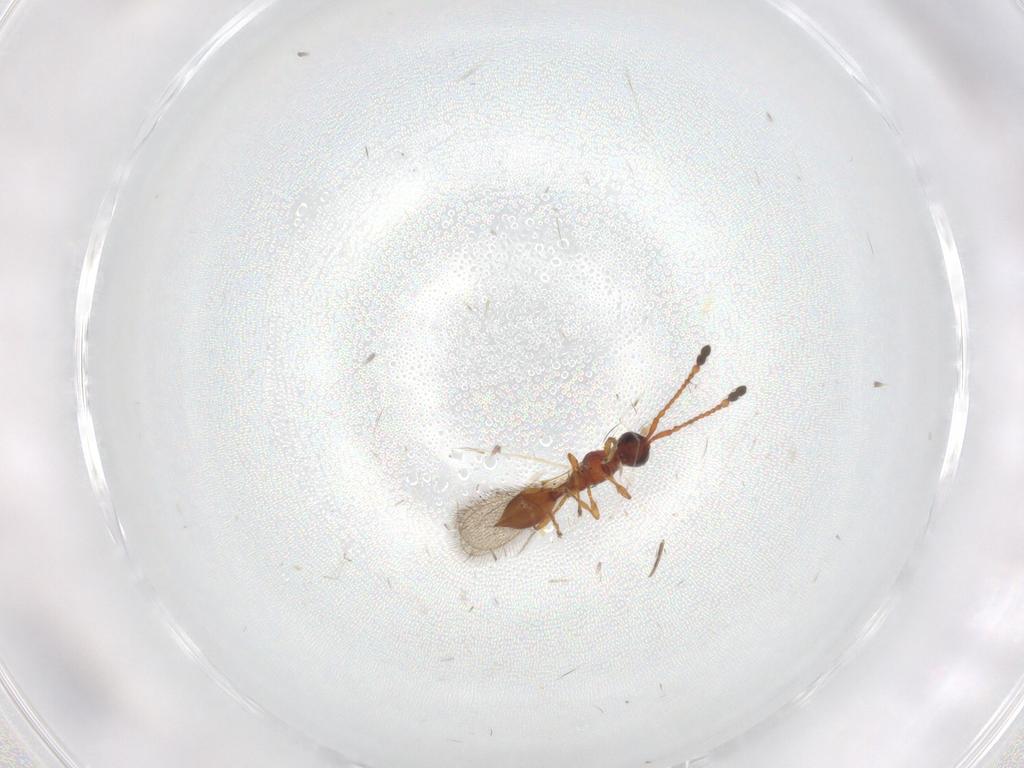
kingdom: Animalia
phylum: Arthropoda
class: Insecta
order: Hymenoptera
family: Diapriidae
